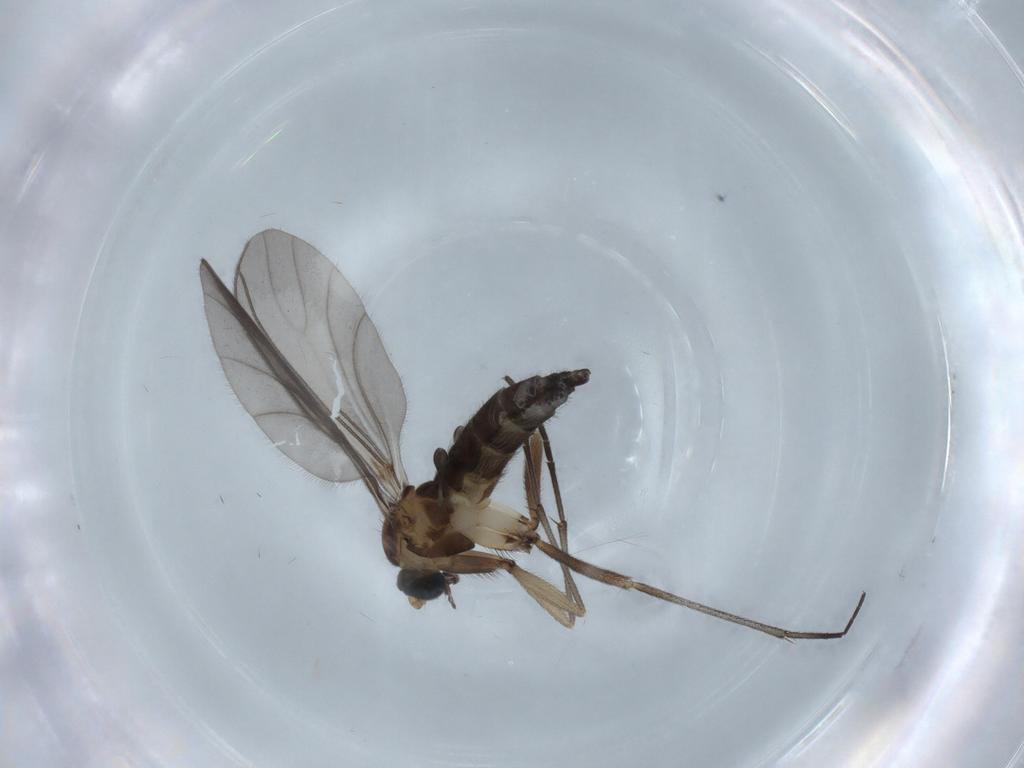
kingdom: Animalia
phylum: Arthropoda
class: Insecta
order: Diptera
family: Sciaridae
